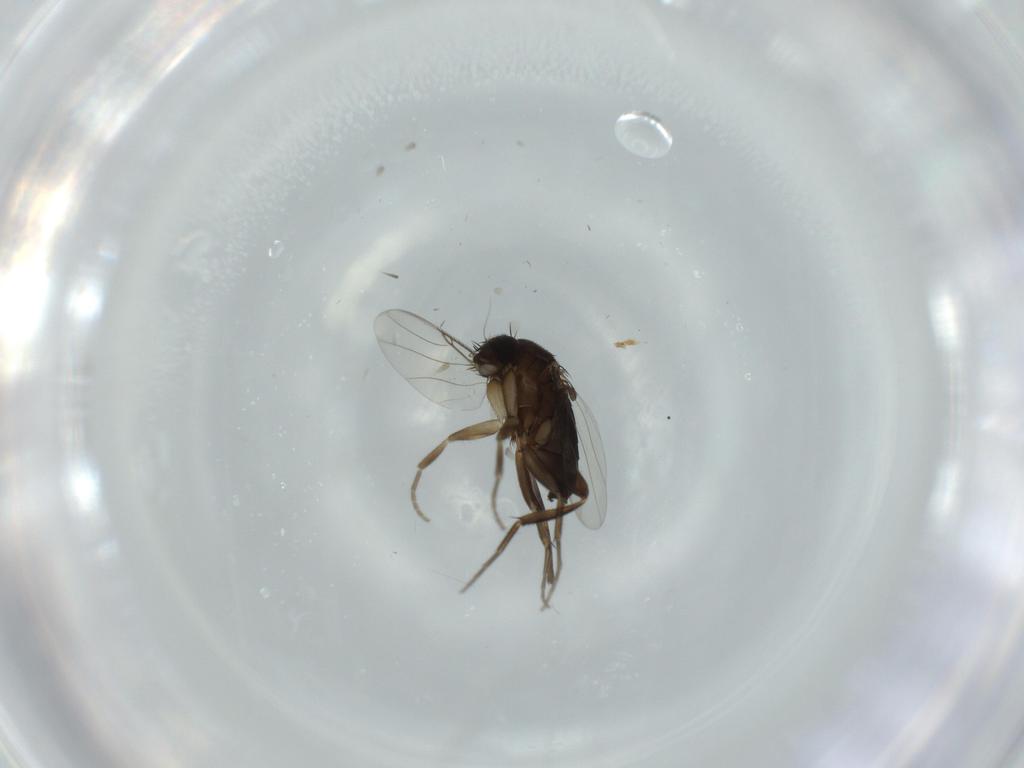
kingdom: Animalia
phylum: Arthropoda
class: Insecta
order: Diptera
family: Phoridae
